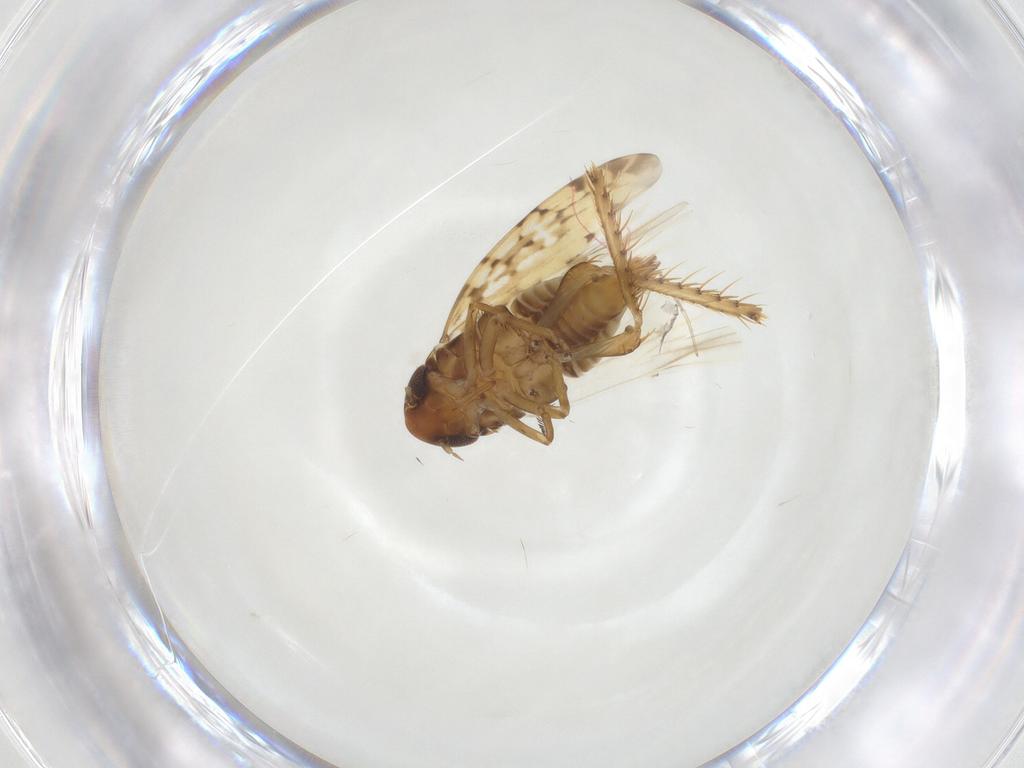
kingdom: Animalia
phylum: Arthropoda
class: Insecta
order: Hemiptera
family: Cicadellidae
